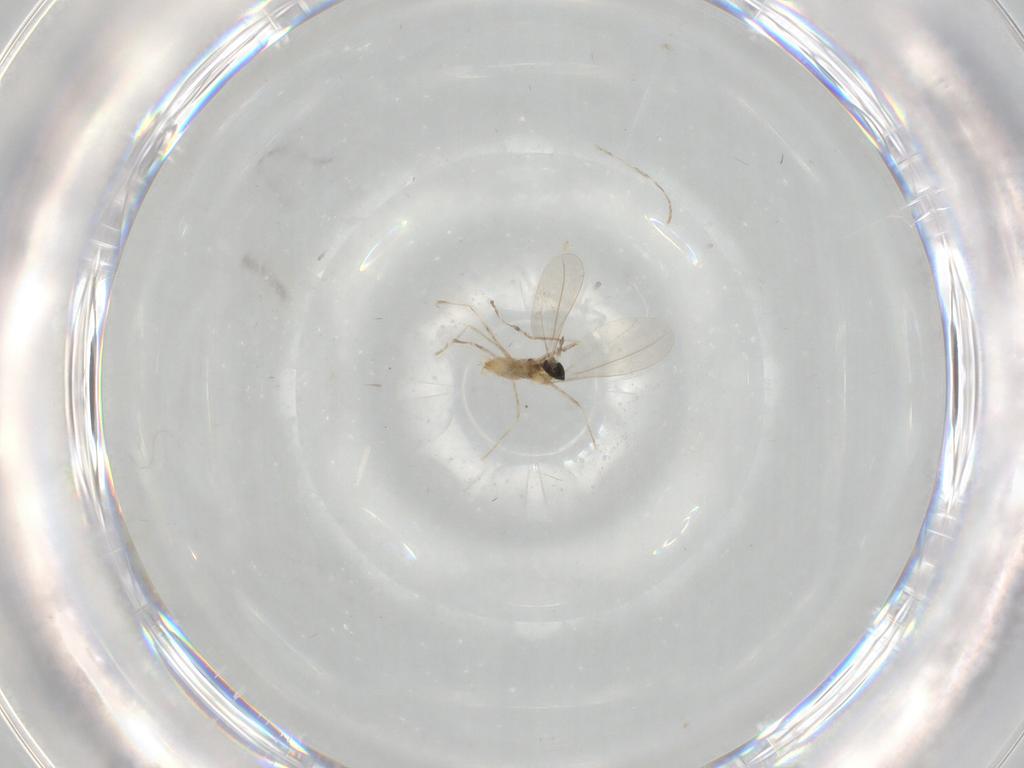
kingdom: Animalia
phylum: Arthropoda
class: Insecta
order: Diptera
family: Cecidomyiidae
